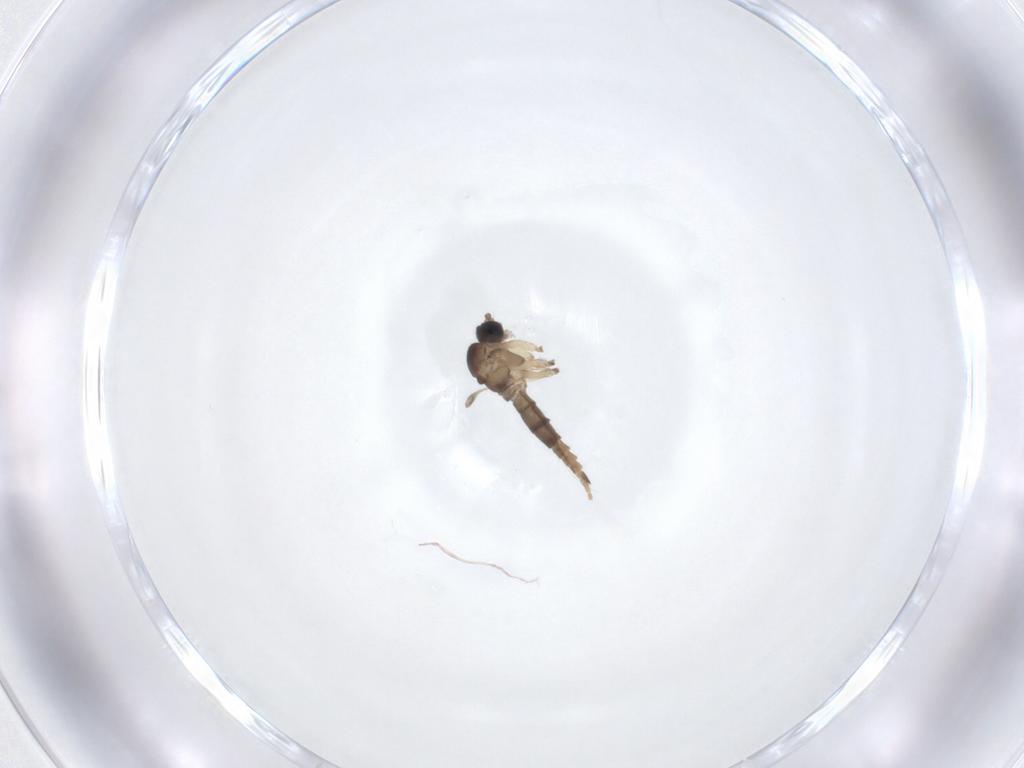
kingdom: Animalia
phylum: Arthropoda
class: Insecta
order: Diptera
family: Sciaridae
